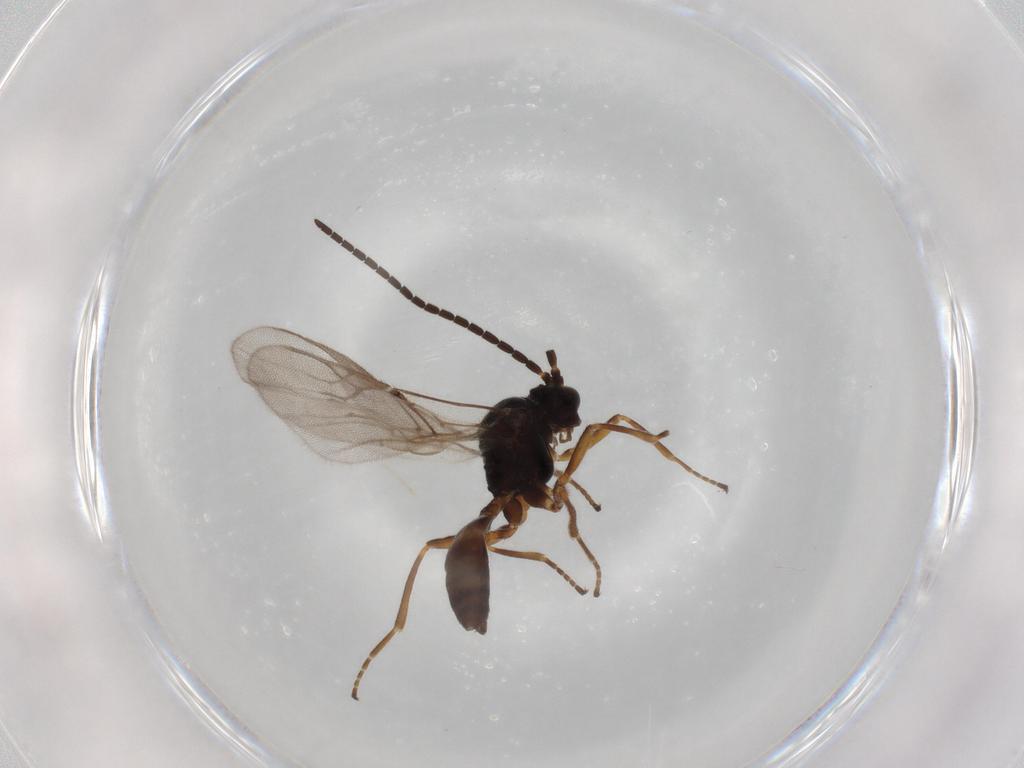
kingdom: Animalia
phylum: Arthropoda
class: Insecta
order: Hymenoptera
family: Braconidae
